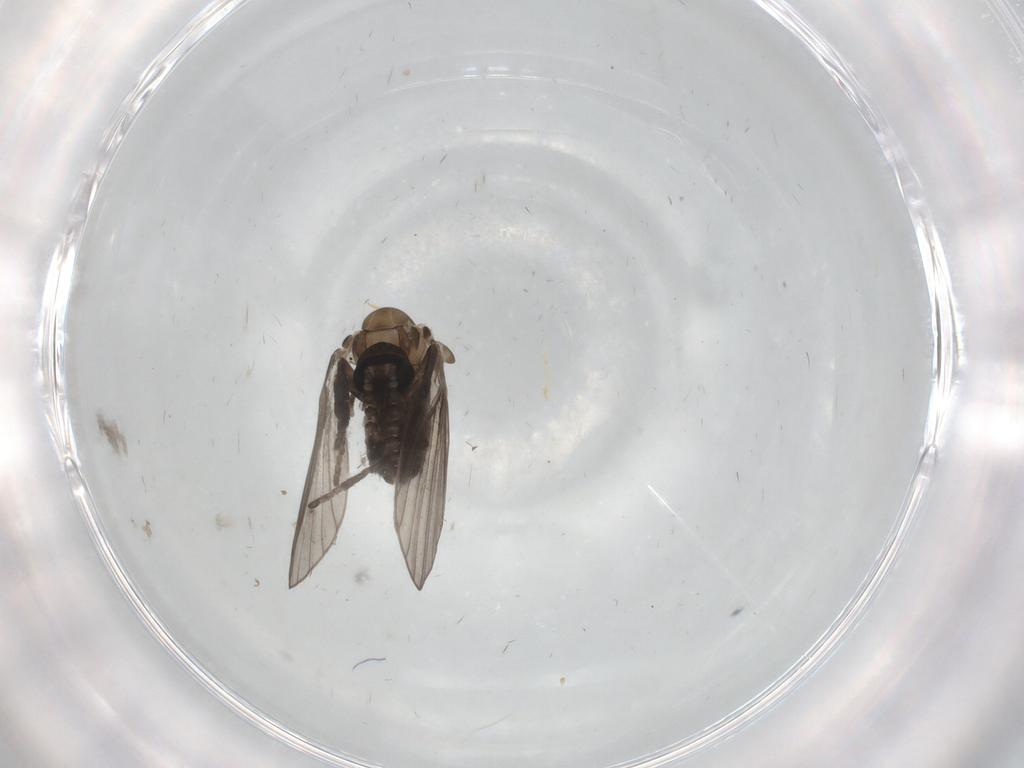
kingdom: Animalia
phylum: Arthropoda
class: Insecta
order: Diptera
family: Psychodidae
